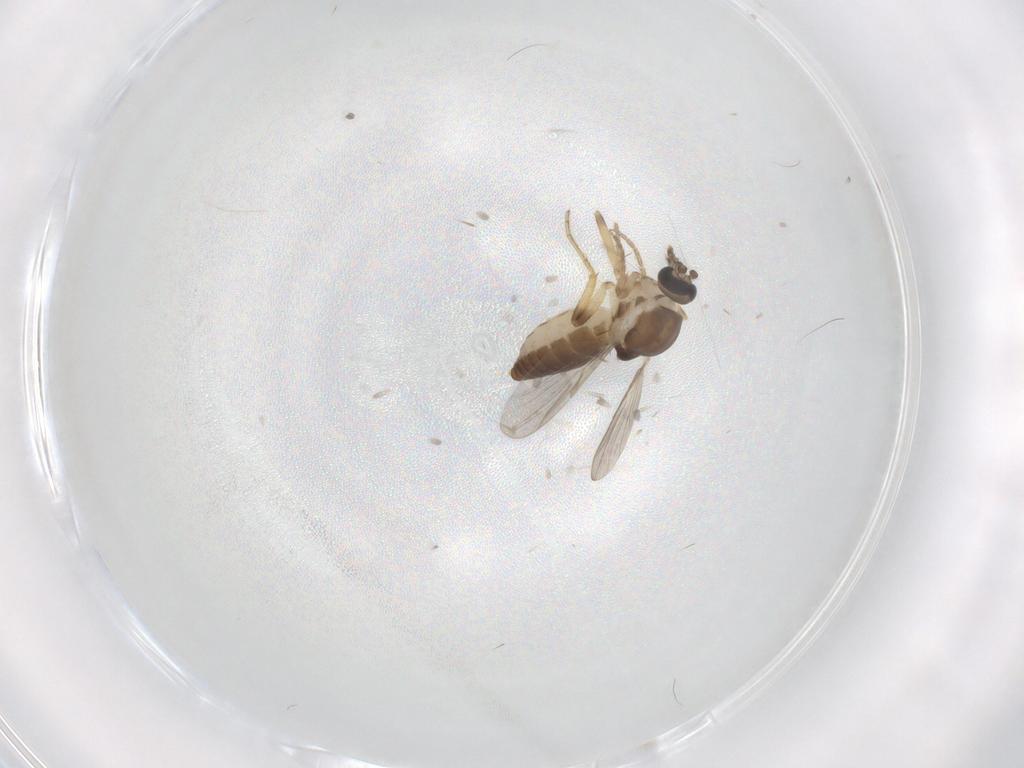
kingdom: Animalia
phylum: Arthropoda
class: Insecta
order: Diptera
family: Ceratopogonidae
